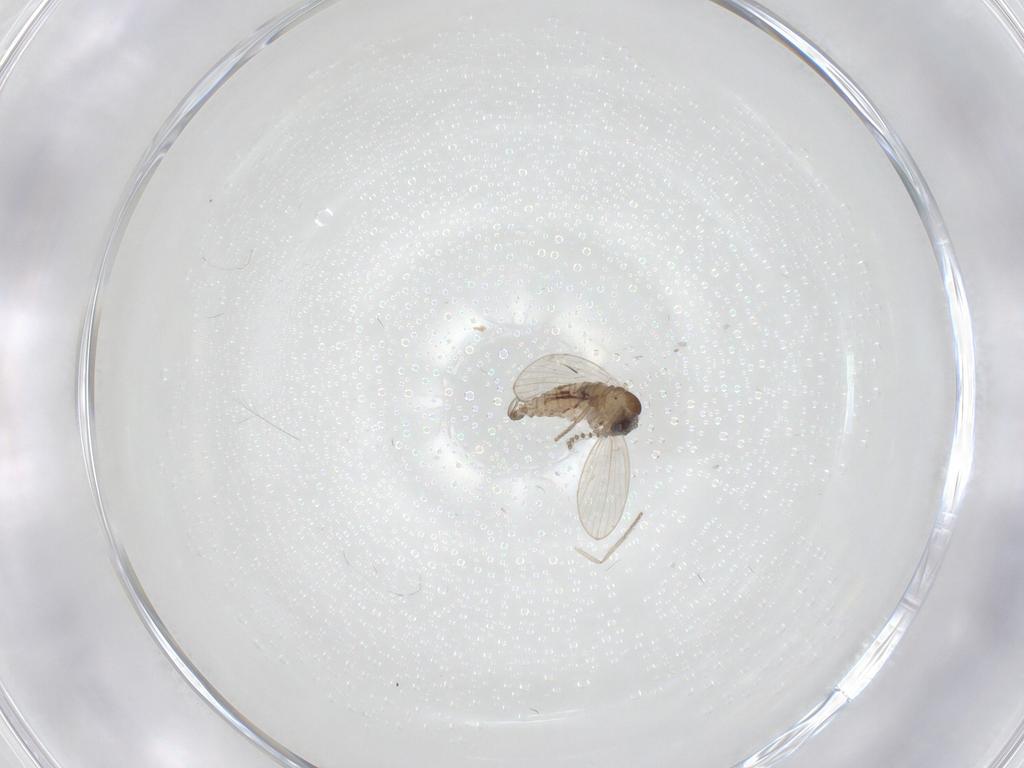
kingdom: Animalia
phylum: Arthropoda
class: Insecta
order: Diptera
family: Psychodidae
